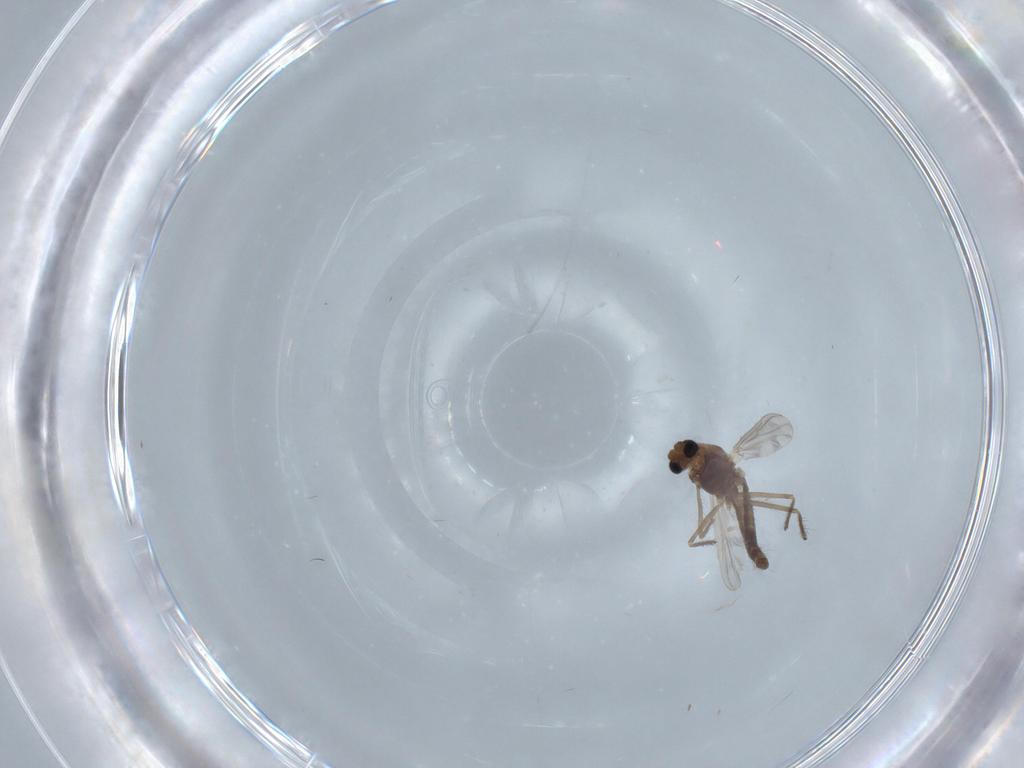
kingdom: Animalia
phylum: Arthropoda
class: Insecta
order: Diptera
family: Chironomidae
